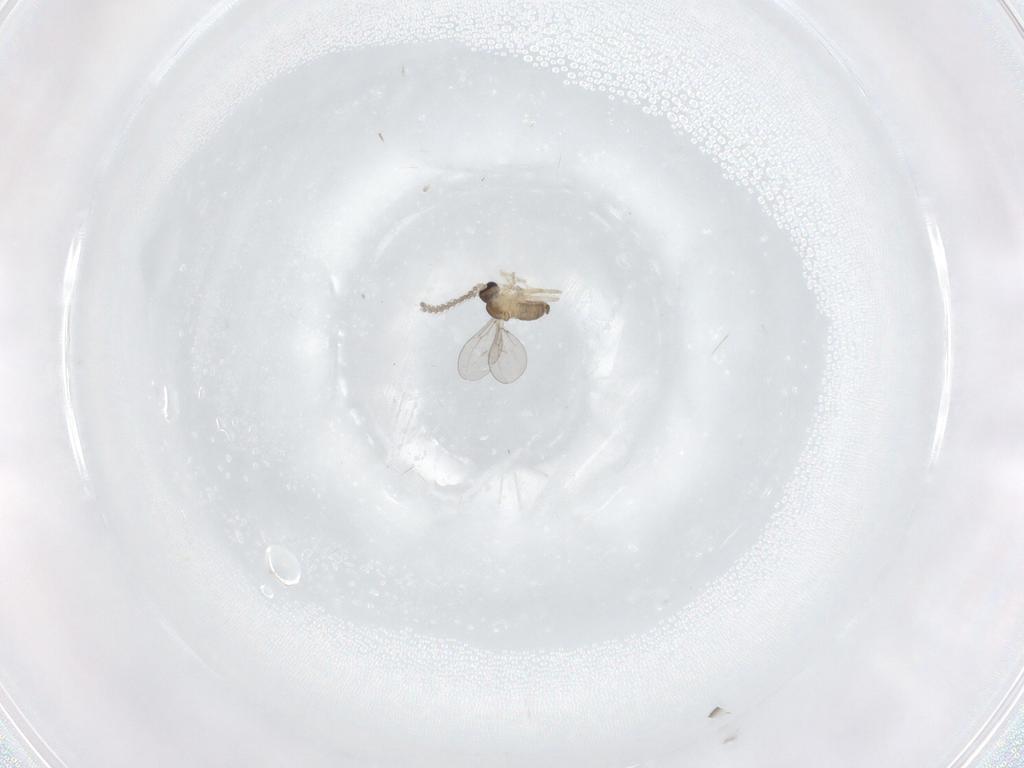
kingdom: Animalia
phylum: Arthropoda
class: Insecta
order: Diptera
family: Cecidomyiidae
